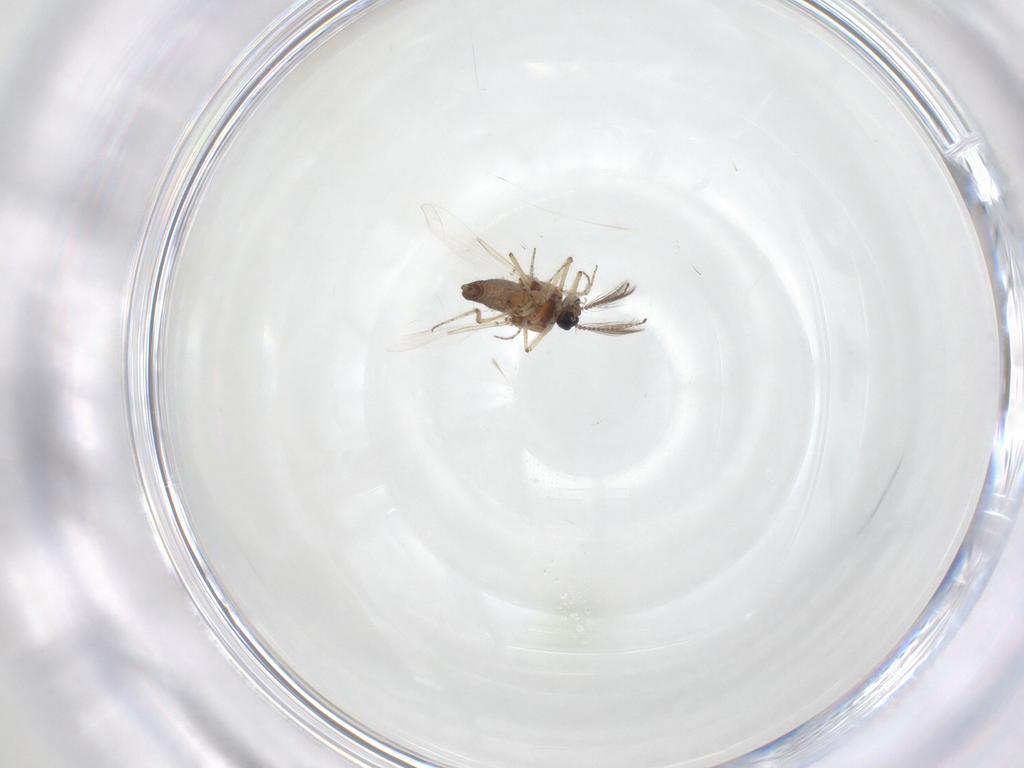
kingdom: Animalia
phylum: Arthropoda
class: Insecta
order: Diptera
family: Ceratopogonidae
